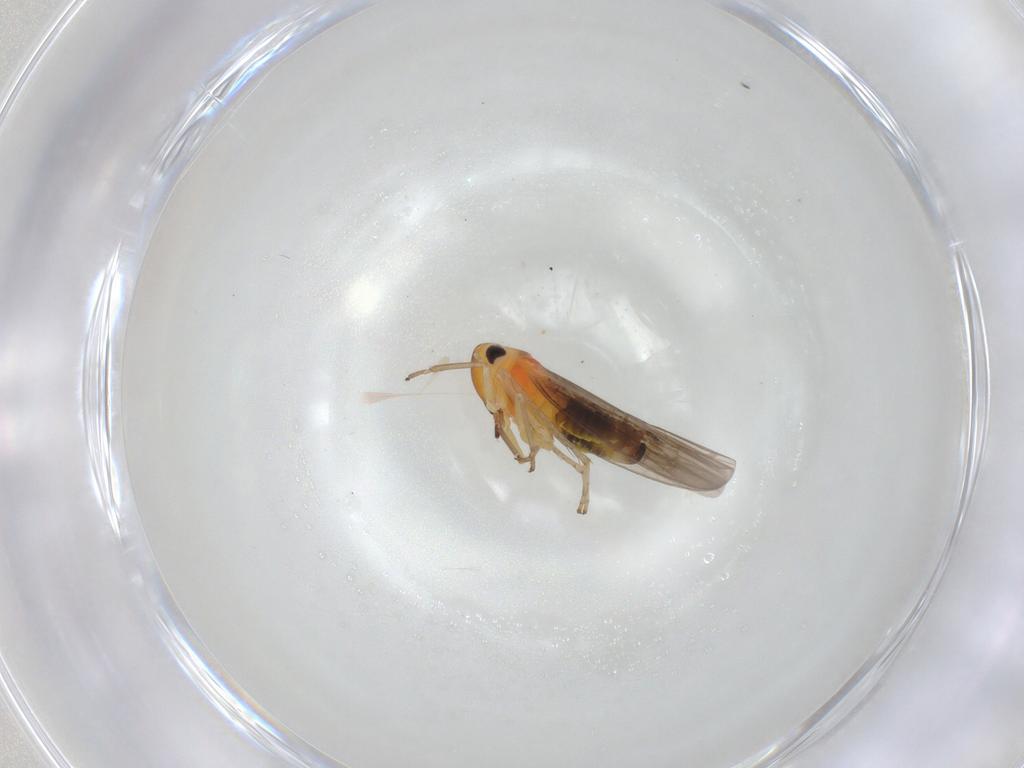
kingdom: Animalia
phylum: Arthropoda
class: Insecta
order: Hemiptera
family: Cicadellidae
